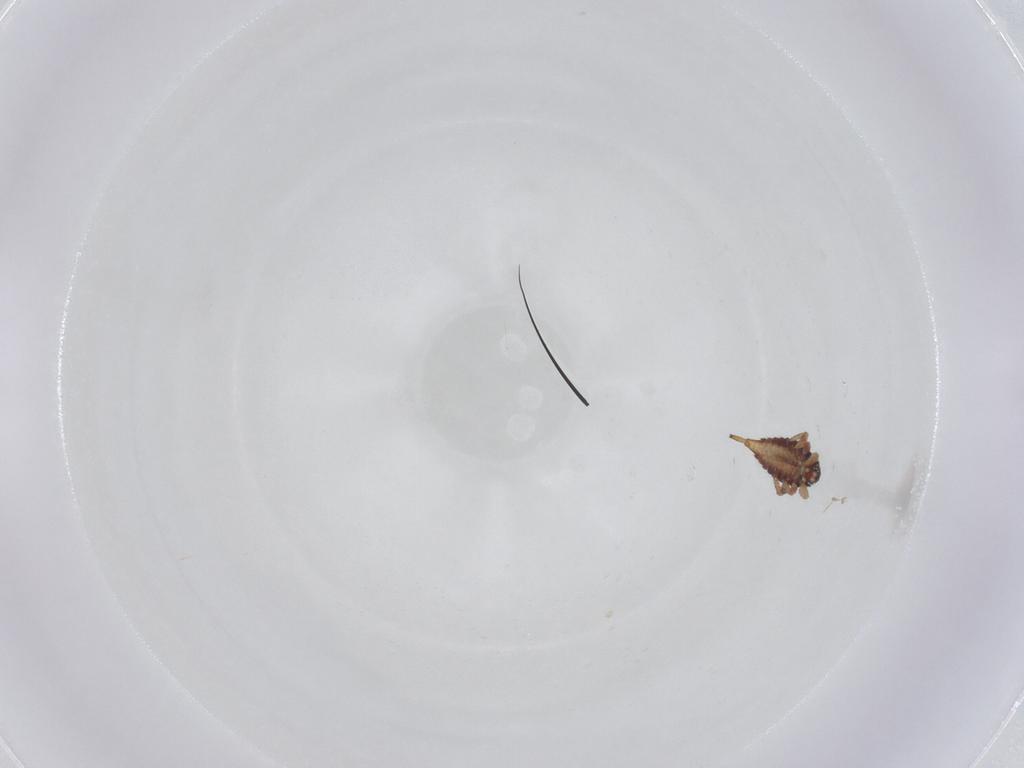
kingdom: Animalia
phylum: Arthropoda
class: Insecta
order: Thysanoptera
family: Phlaeothripidae
